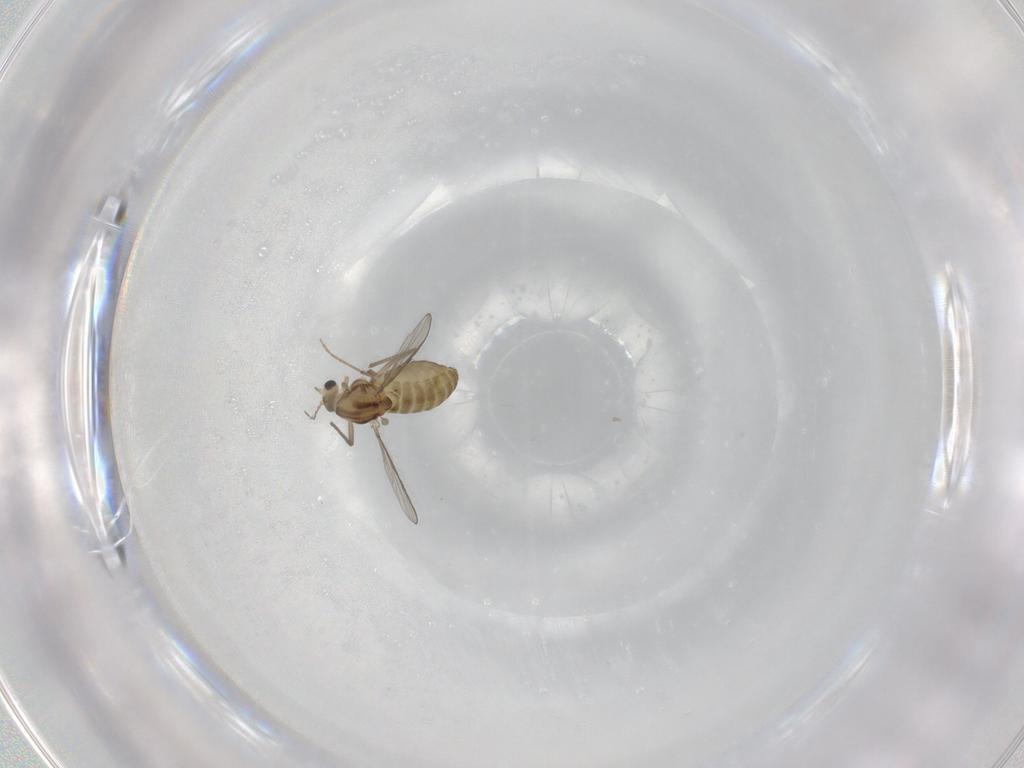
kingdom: Animalia
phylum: Arthropoda
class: Insecta
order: Diptera
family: Chironomidae
